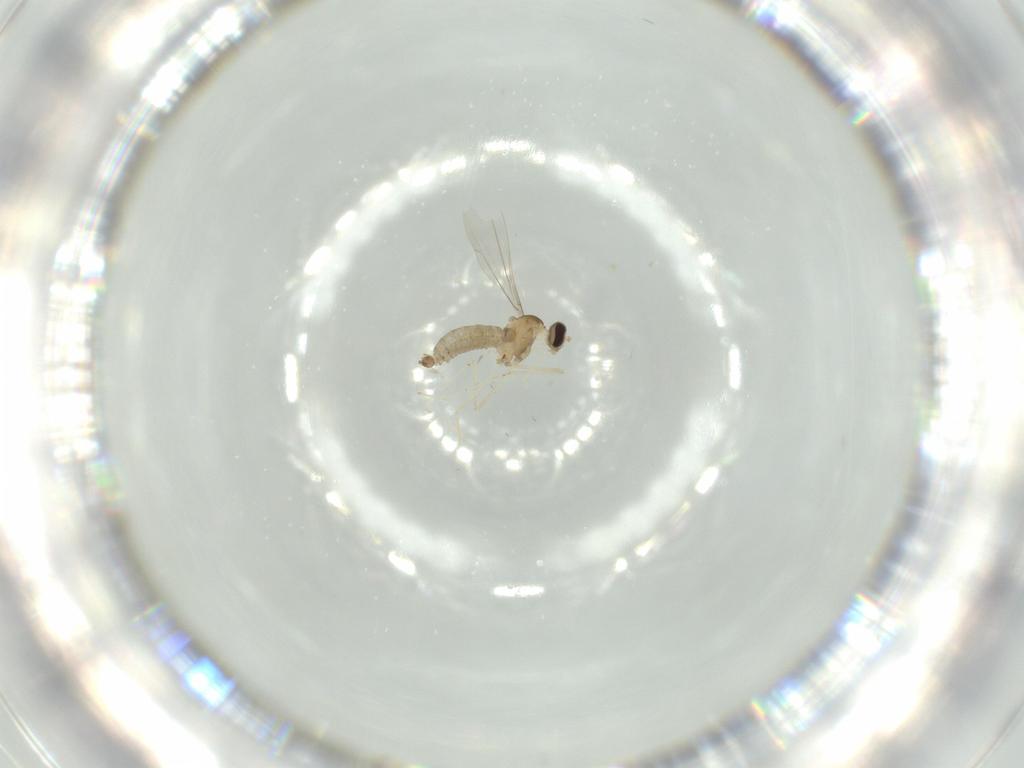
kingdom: Animalia
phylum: Arthropoda
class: Insecta
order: Diptera
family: Cecidomyiidae
